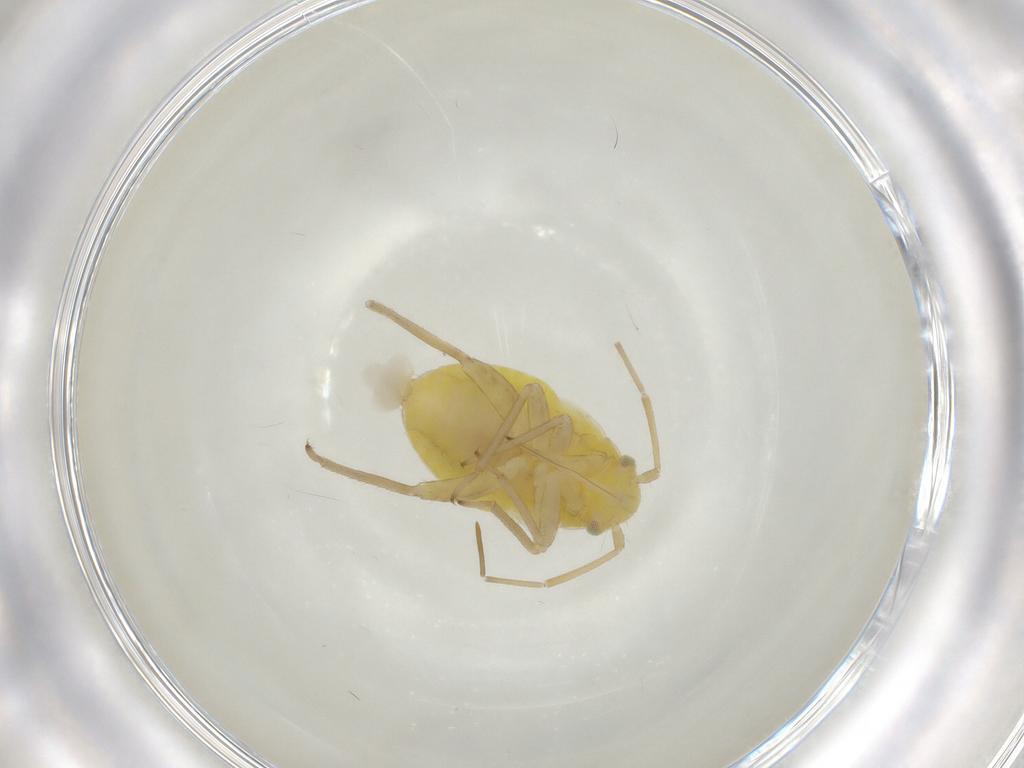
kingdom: Animalia
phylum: Arthropoda
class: Insecta
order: Hemiptera
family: Miridae
